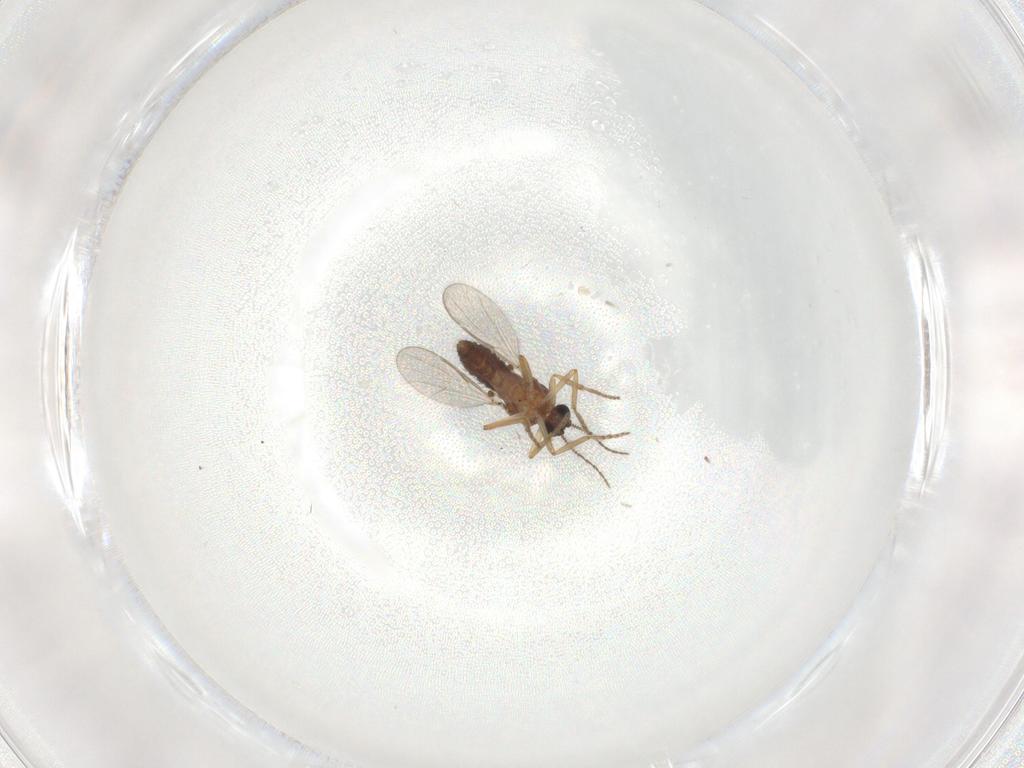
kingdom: Animalia
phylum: Arthropoda
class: Insecta
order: Diptera
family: Ceratopogonidae
